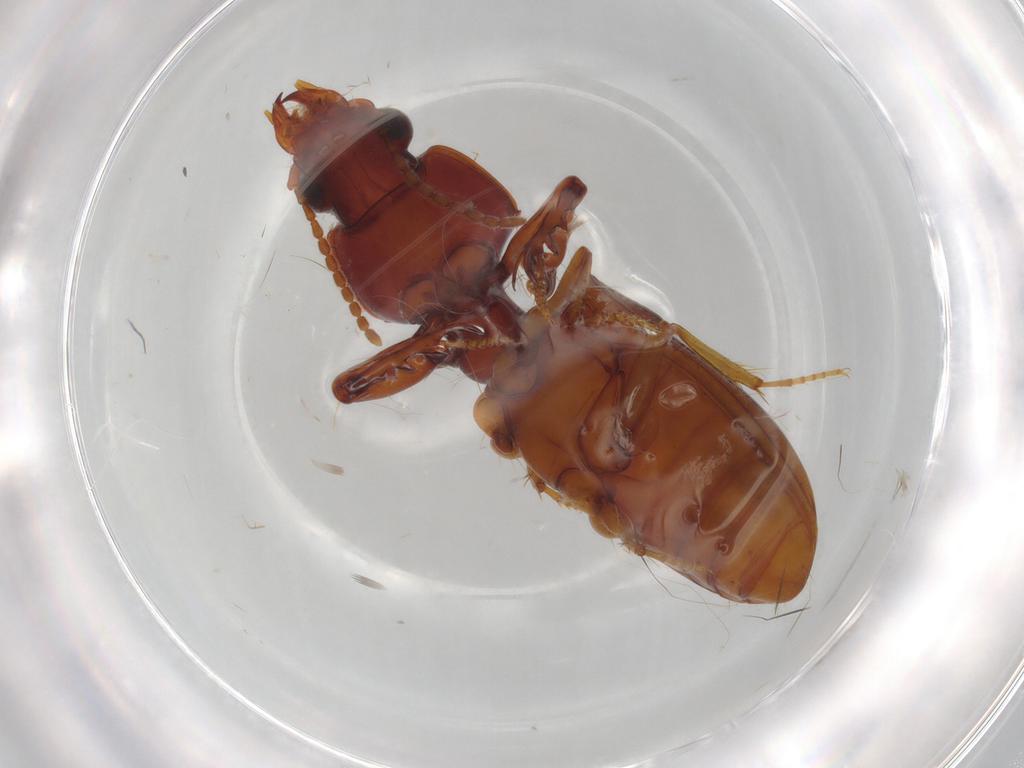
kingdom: Animalia
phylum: Arthropoda
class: Insecta
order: Coleoptera
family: Carabidae
